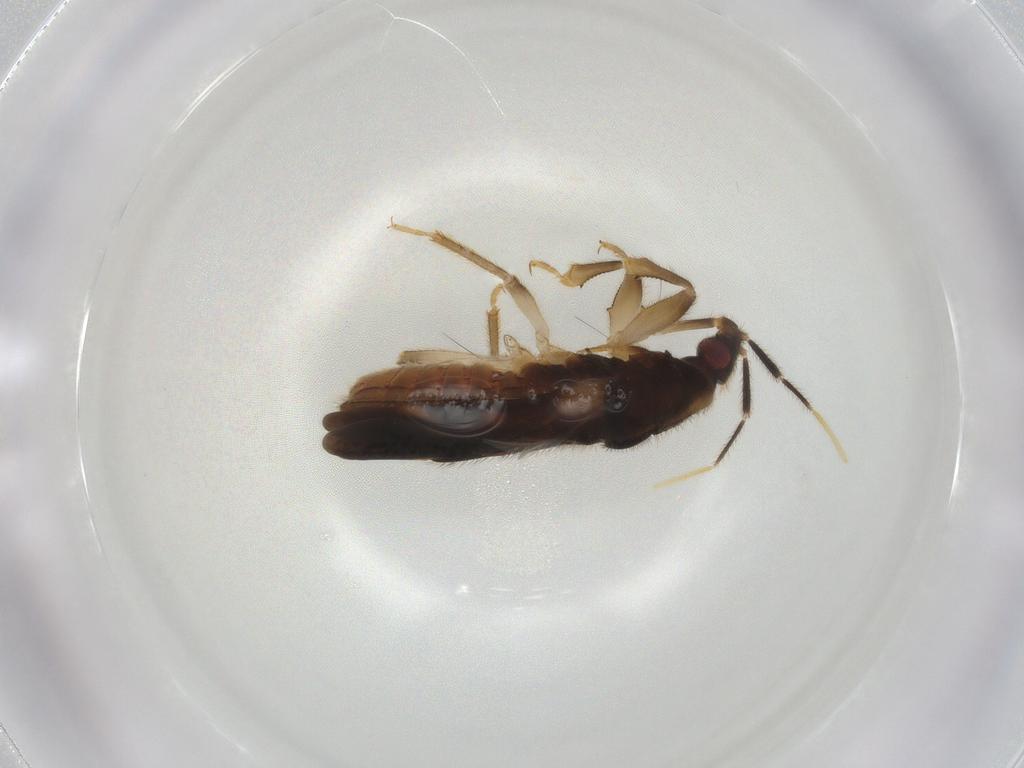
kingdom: Animalia
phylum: Arthropoda
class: Insecta
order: Hemiptera
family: Nabidae
